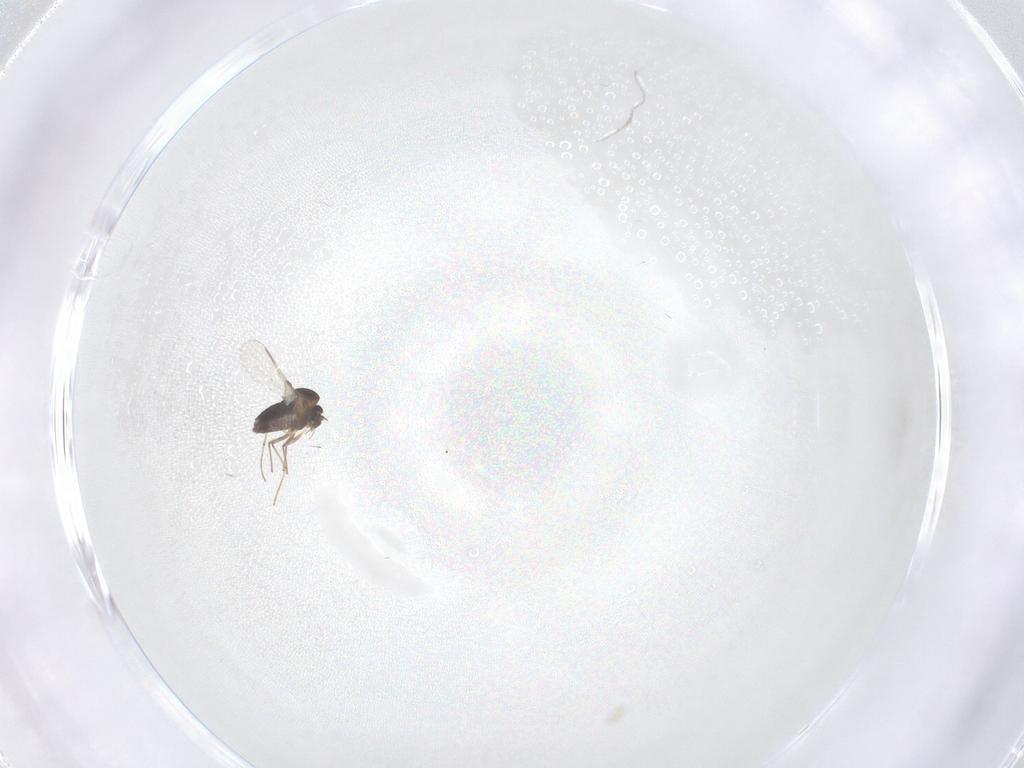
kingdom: Animalia
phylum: Arthropoda
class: Insecta
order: Diptera
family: Chironomidae
